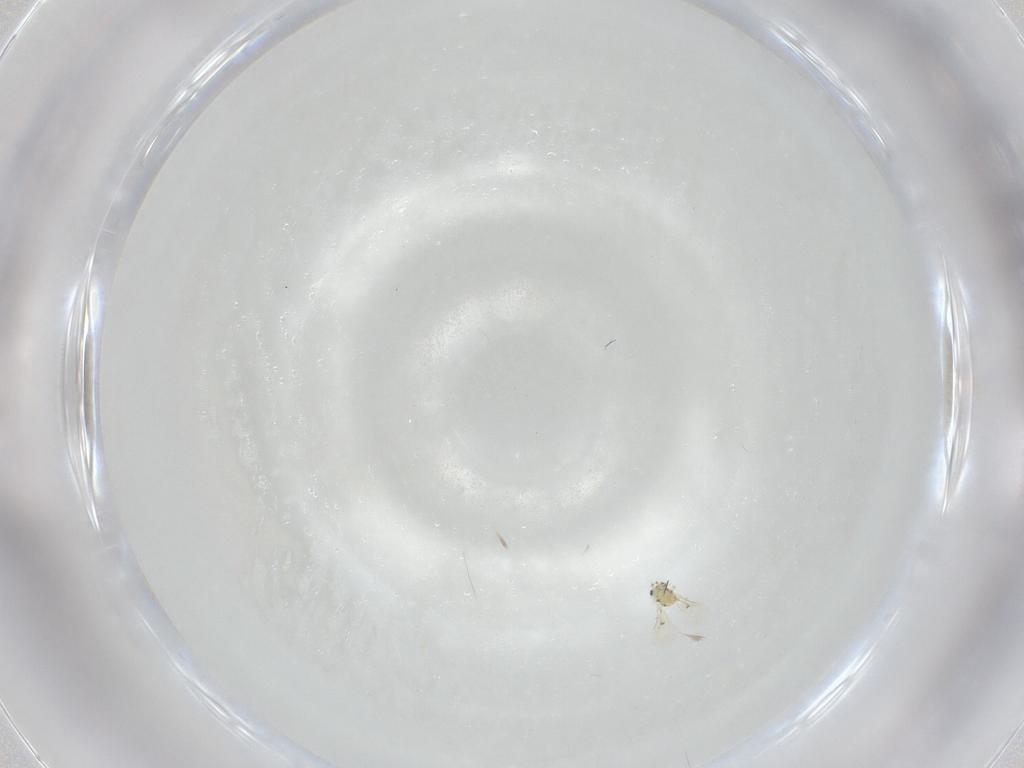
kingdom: Animalia
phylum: Arthropoda
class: Insecta
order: Hymenoptera
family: Trichogrammatidae
